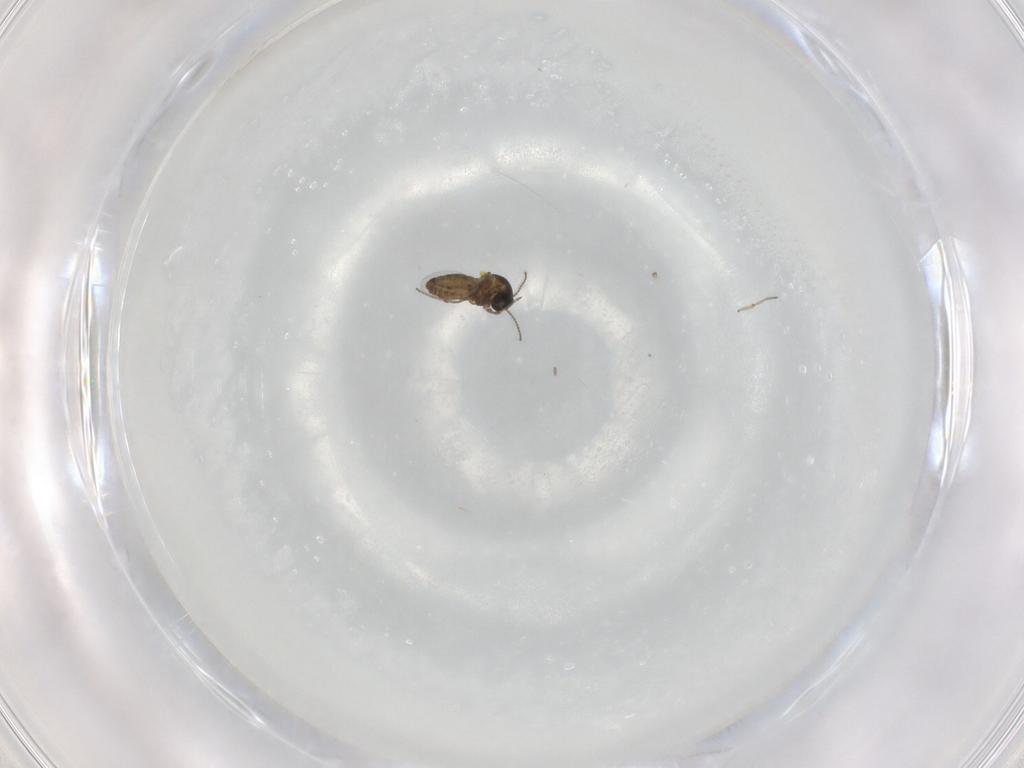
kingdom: Animalia
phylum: Arthropoda
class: Insecta
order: Diptera
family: Ceratopogonidae
